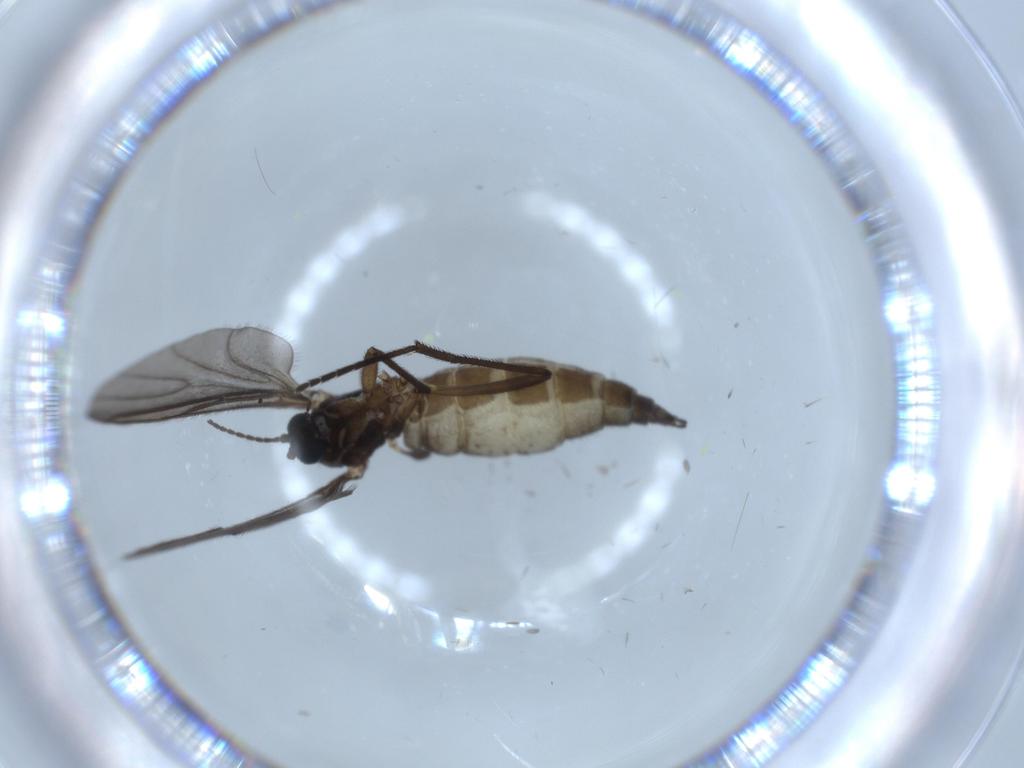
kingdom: Animalia
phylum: Arthropoda
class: Insecta
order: Diptera
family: Sciaridae
